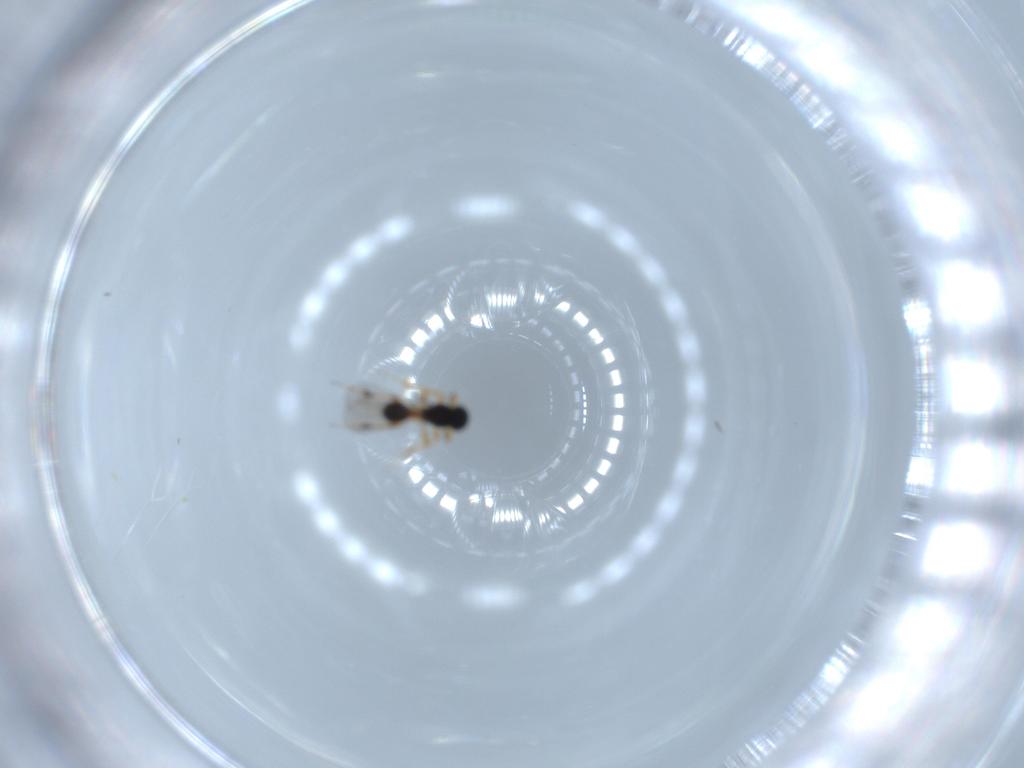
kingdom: Animalia
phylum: Arthropoda
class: Insecta
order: Hymenoptera
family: Platygastridae
